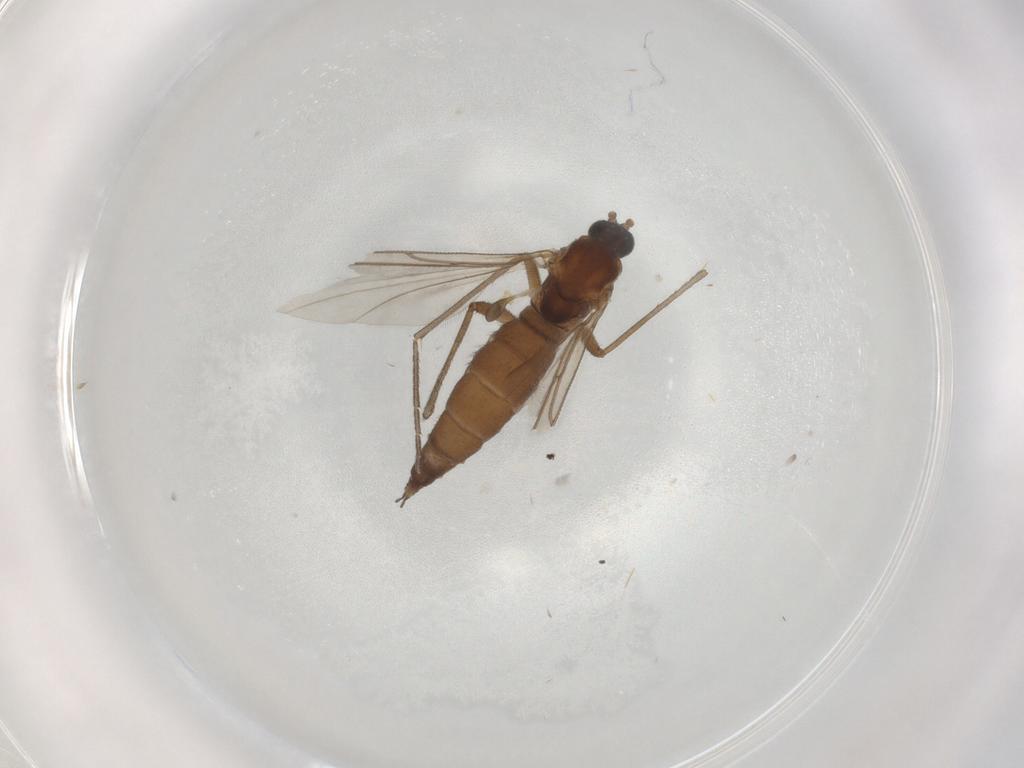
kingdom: Animalia
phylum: Arthropoda
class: Insecta
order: Diptera
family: Sciaridae
